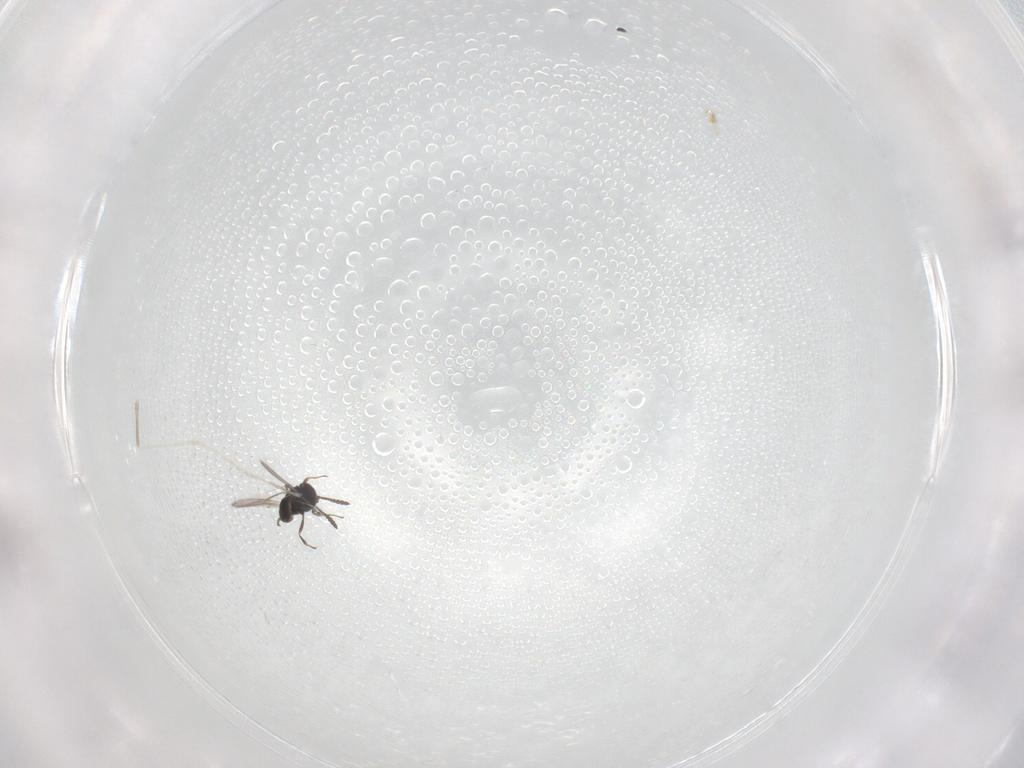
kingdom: Animalia
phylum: Arthropoda
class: Insecta
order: Hymenoptera
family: Scelionidae
